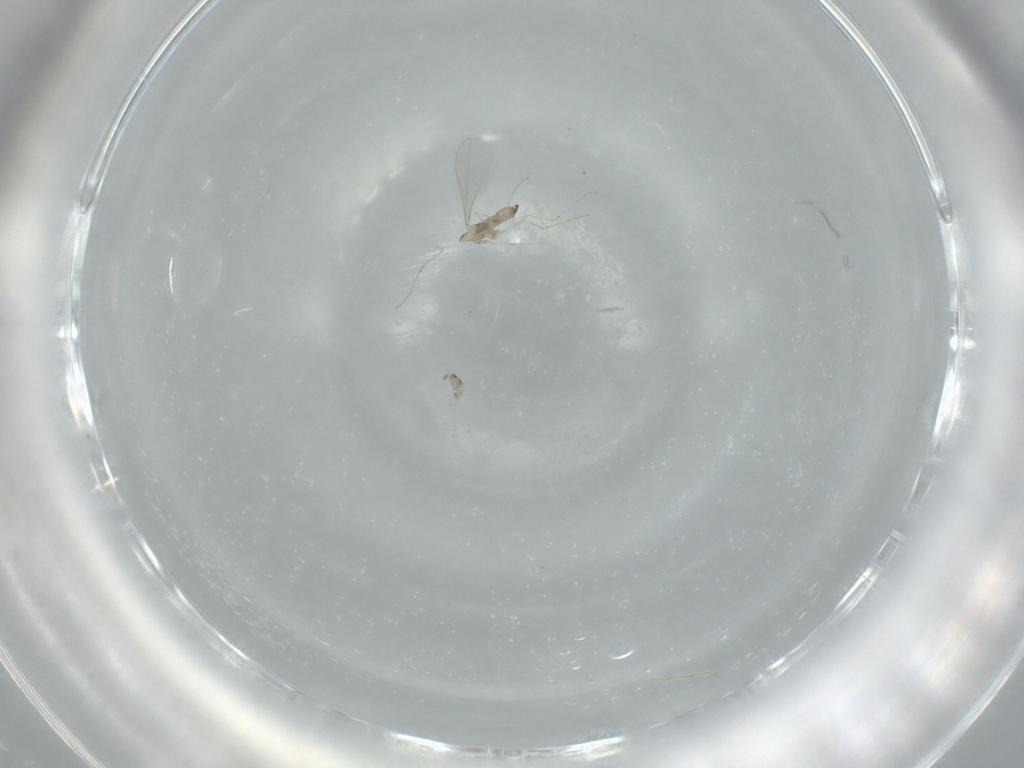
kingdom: Animalia
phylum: Arthropoda
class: Insecta
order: Diptera
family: Cecidomyiidae
